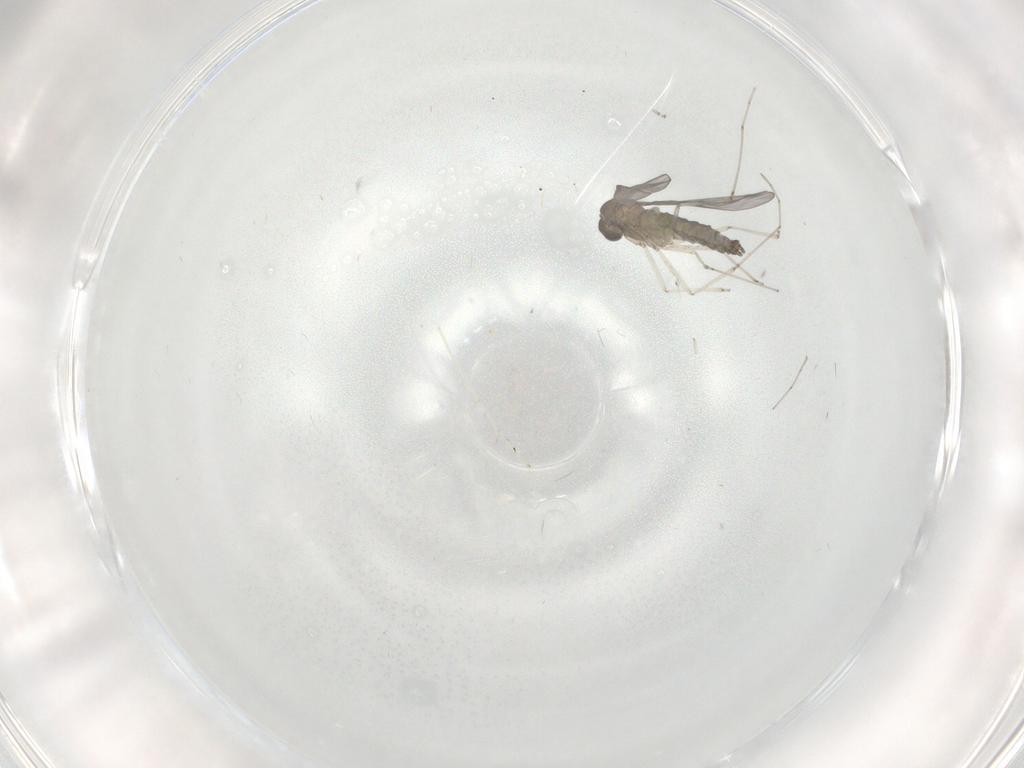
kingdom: Animalia
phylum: Arthropoda
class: Insecta
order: Diptera
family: Cecidomyiidae
